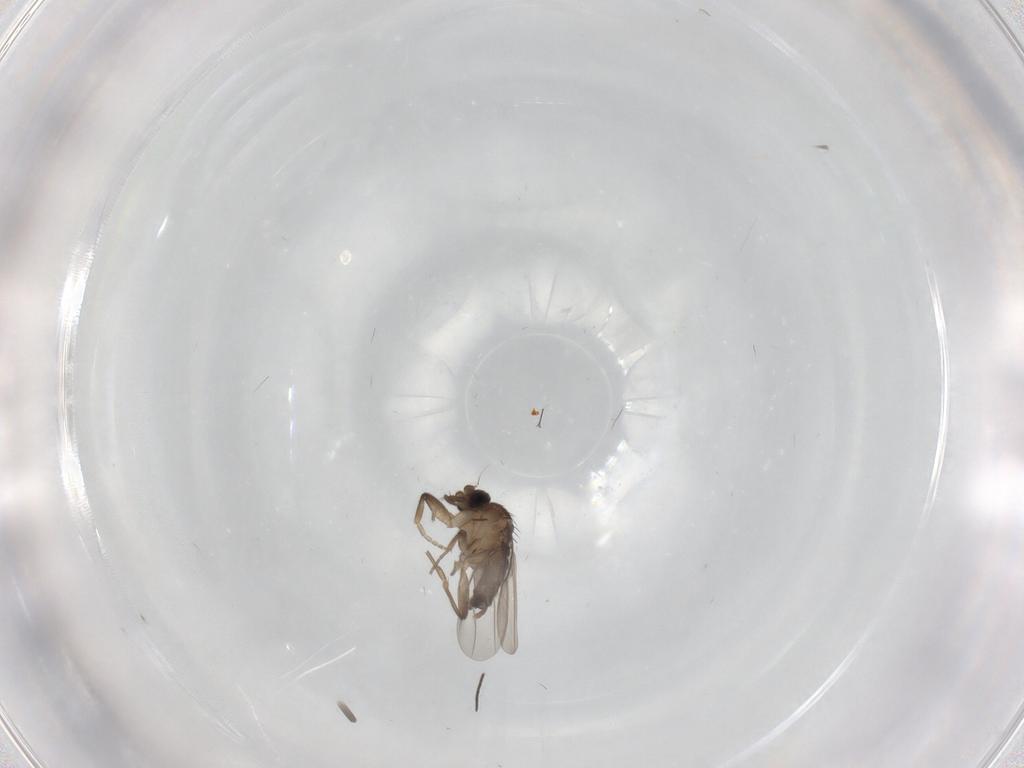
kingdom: Animalia
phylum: Arthropoda
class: Insecta
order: Diptera
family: Phoridae
